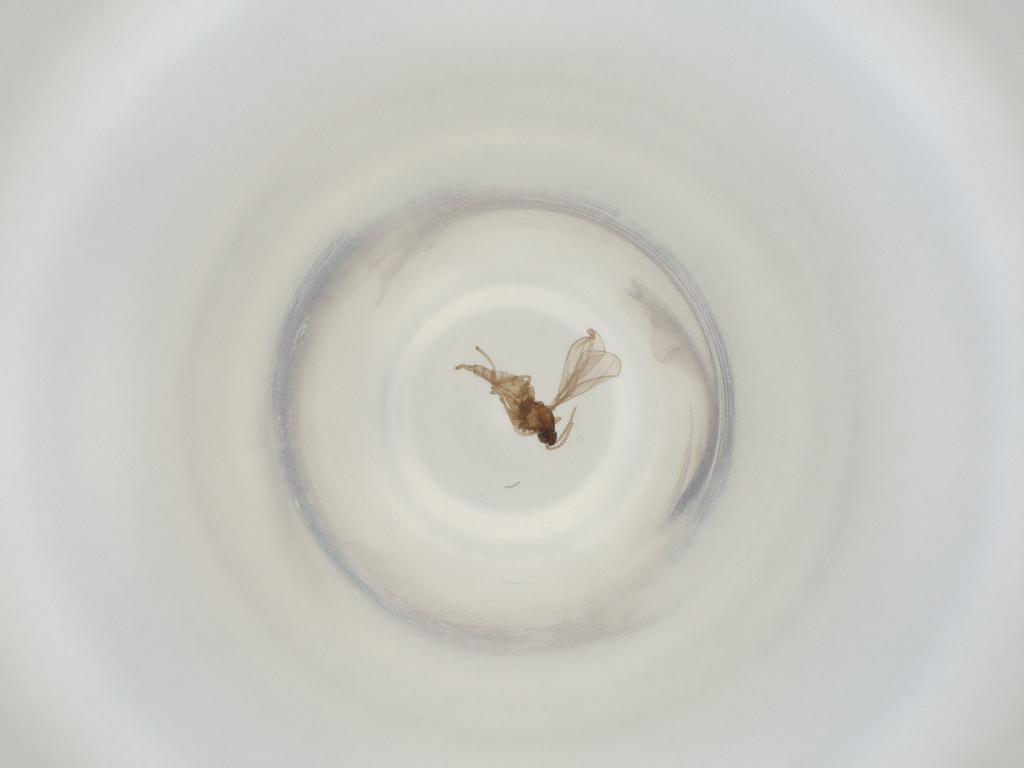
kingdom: Animalia
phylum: Arthropoda
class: Insecta
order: Diptera
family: Cecidomyiidae
